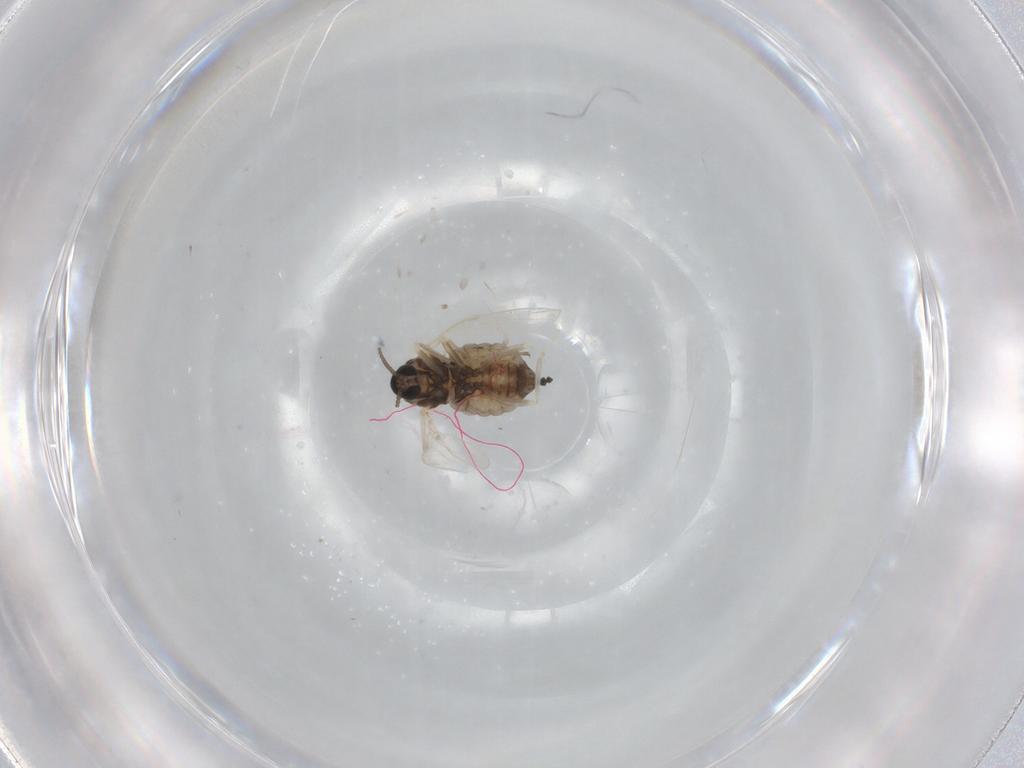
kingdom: Animalia
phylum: Arthropoda
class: Insecta
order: Diptera
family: Cecidomyiidae
